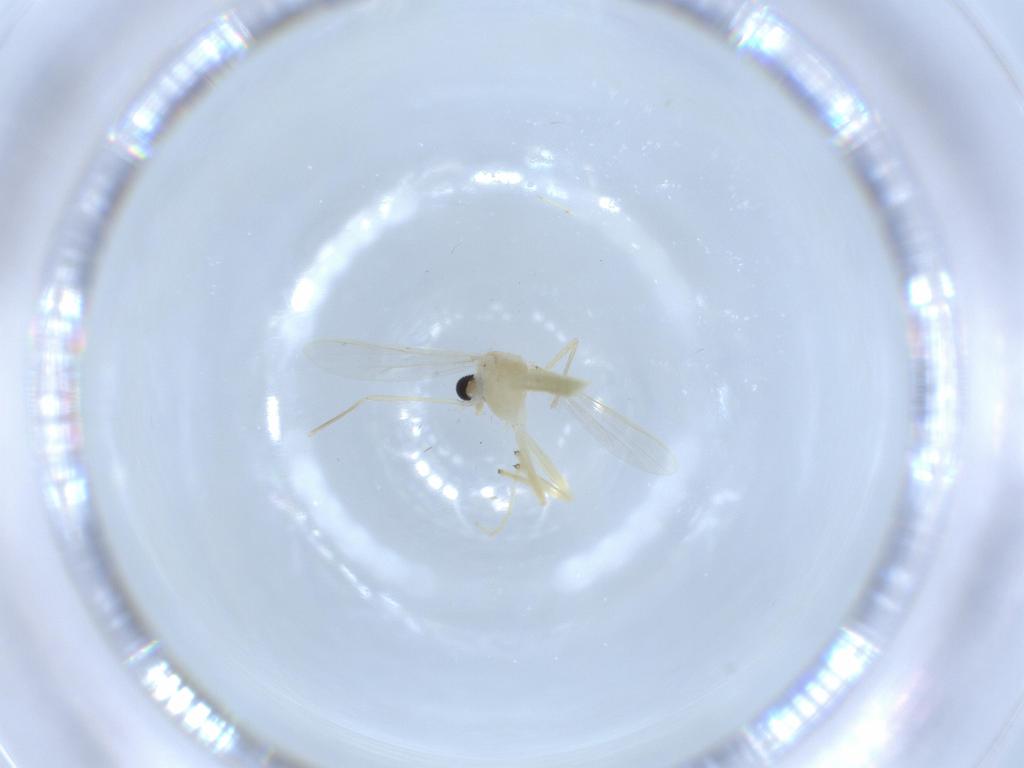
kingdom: Animalia
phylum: Arthropoda
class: Insecta
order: Diptera
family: Chironomidae
